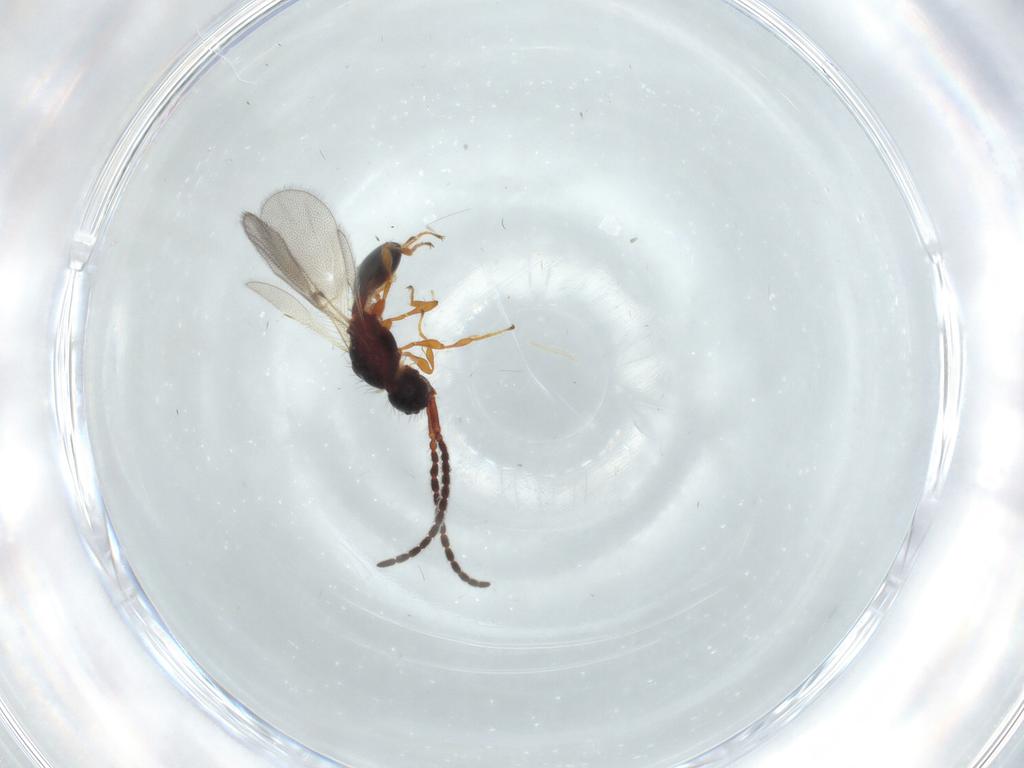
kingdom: Animalia
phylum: Arthropoda
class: Insecta
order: Hymenoptera
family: Diapriidae
